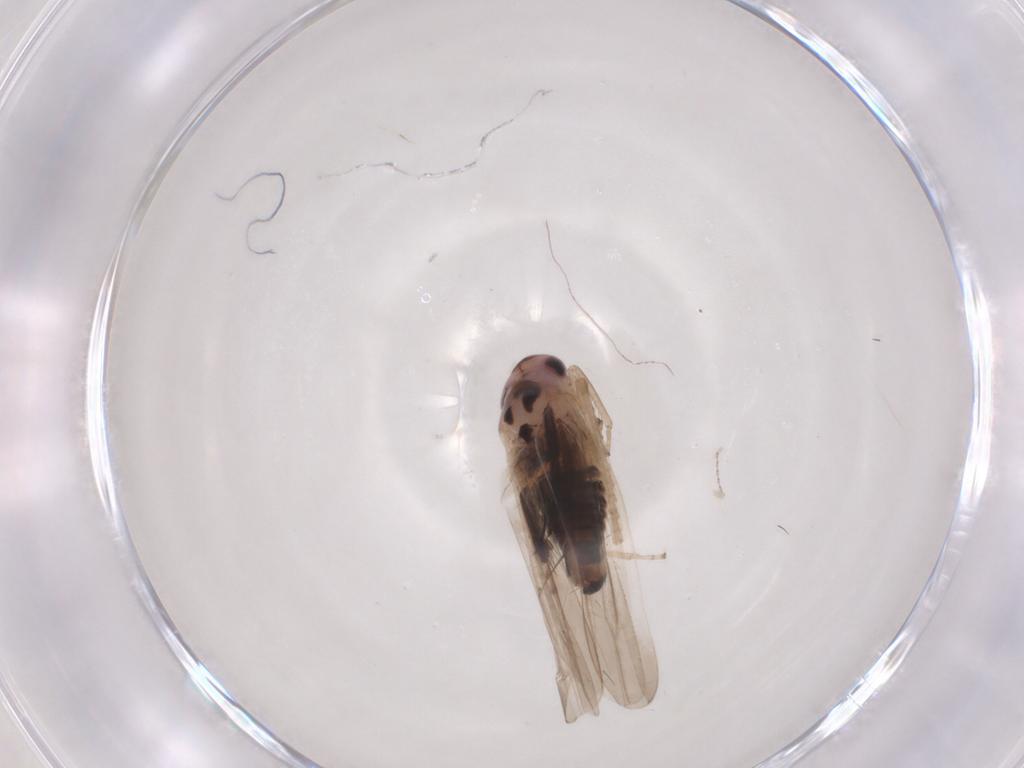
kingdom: Animalia
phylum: Arthropoda
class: Insecta
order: Hemiptera
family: Cicadellidae
